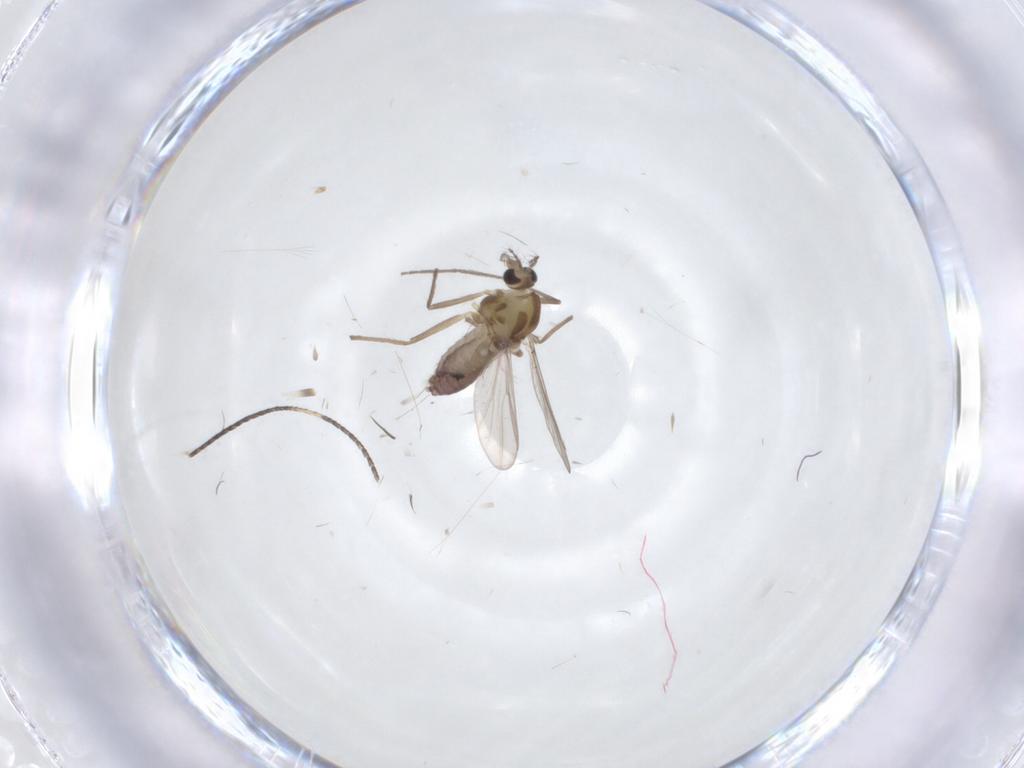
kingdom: Animalia
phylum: Arthropoda
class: Insecta
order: Diptera
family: Chironomidae
